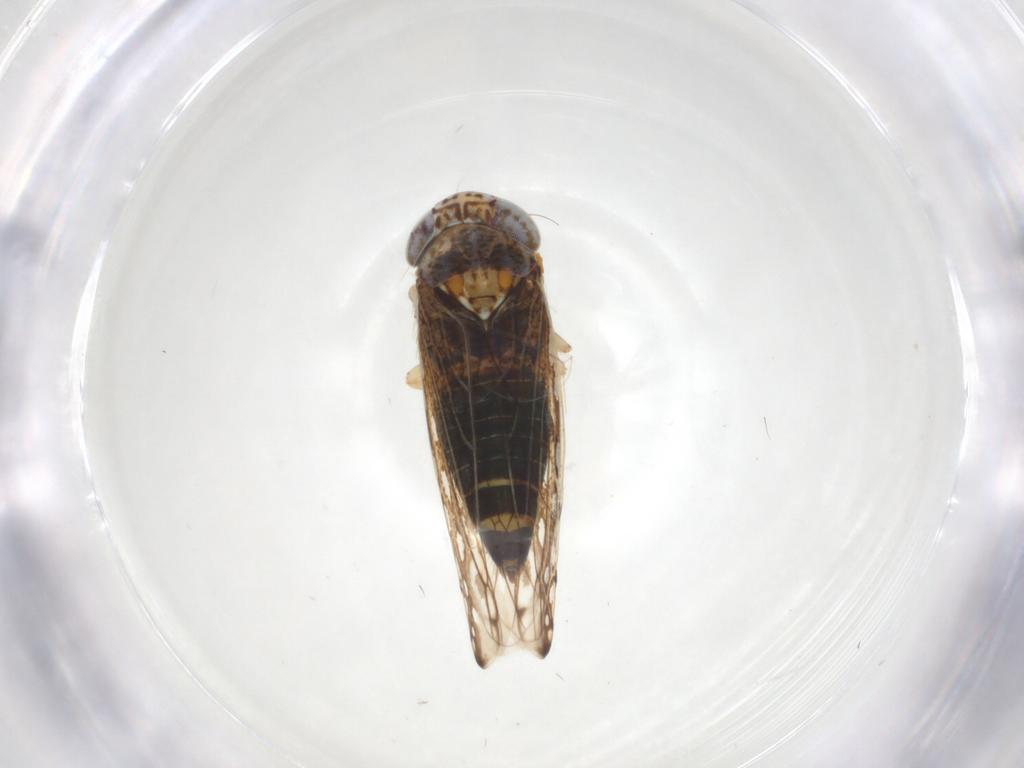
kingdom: Animalia
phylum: Arthropoda
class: Insecta
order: Hemiptera
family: Cicadellidae
